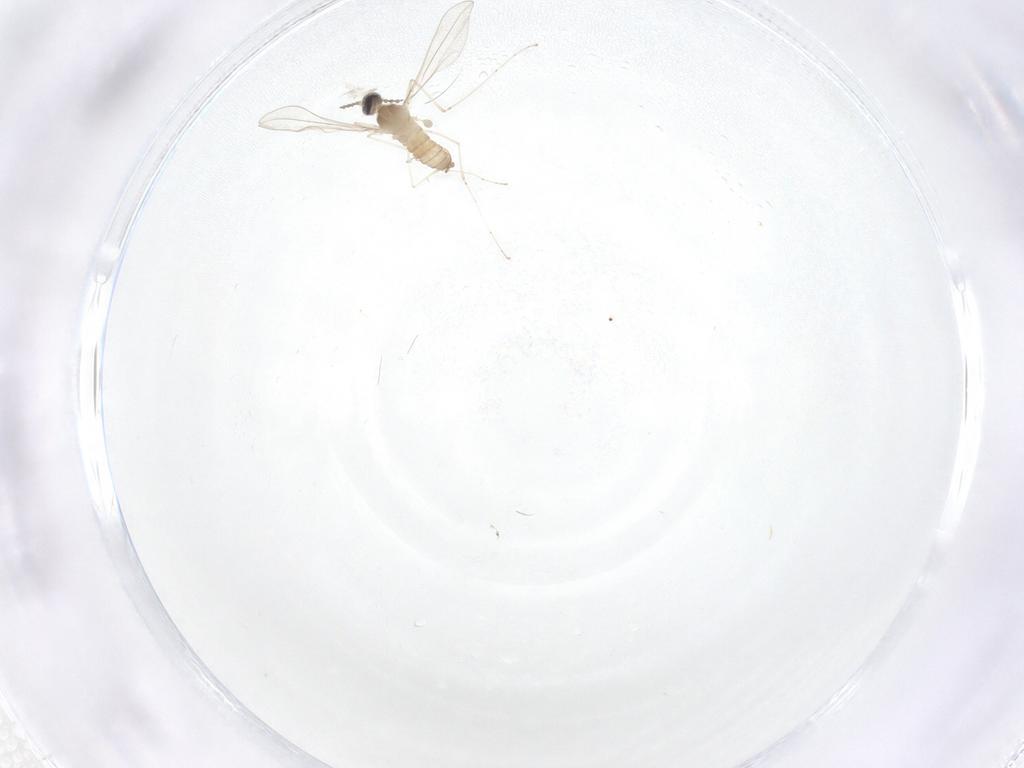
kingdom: Animalia
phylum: Arthropoda
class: Insecta
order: Diptera
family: Cecidomyiidae
